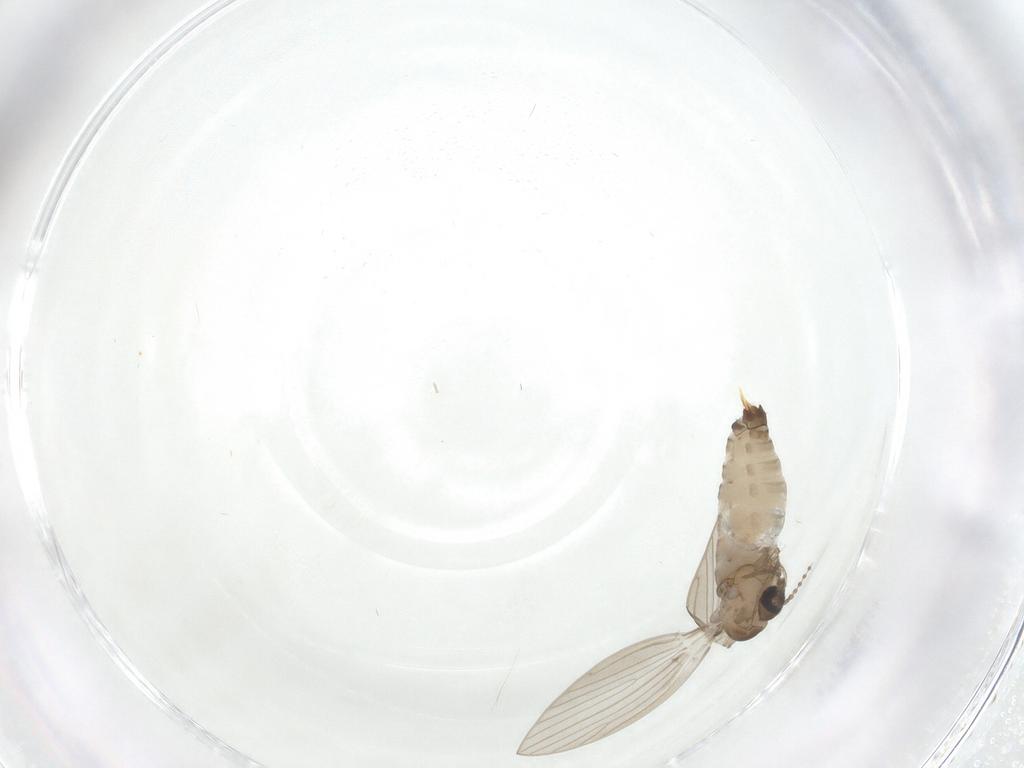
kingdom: Animalia
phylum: Arthropoda
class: Insecta
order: Diptera
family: Psychodidae
